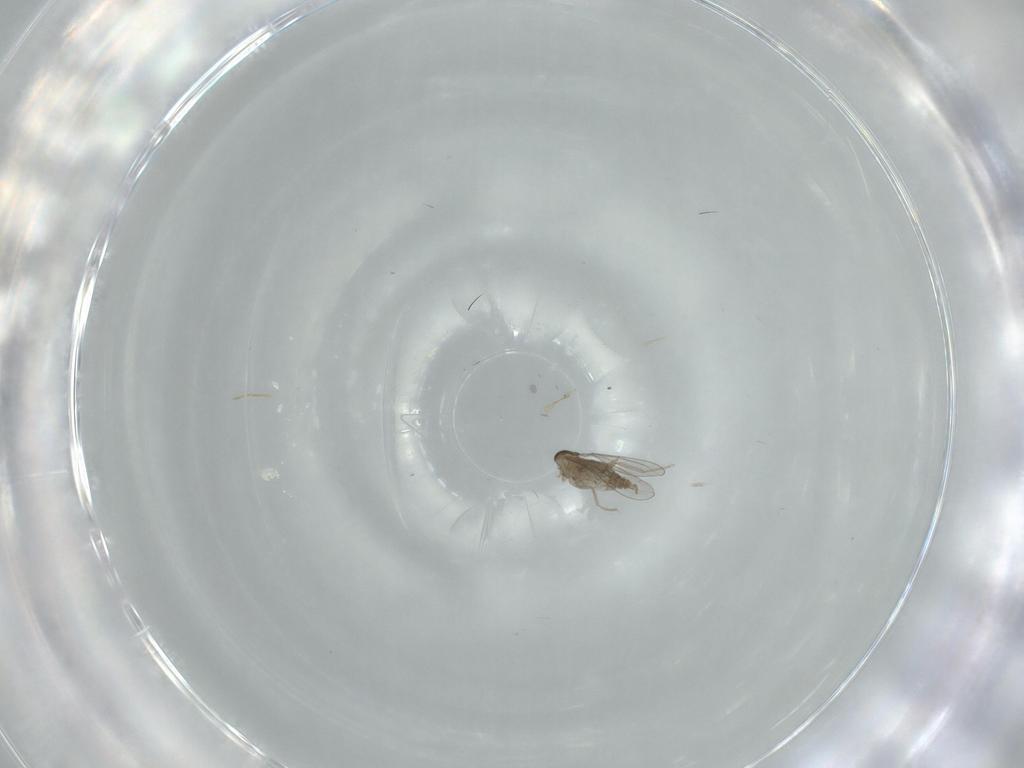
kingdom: Animalia
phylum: Arthropoda
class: Insecta
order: Diptera
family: Cecidomyiidae
